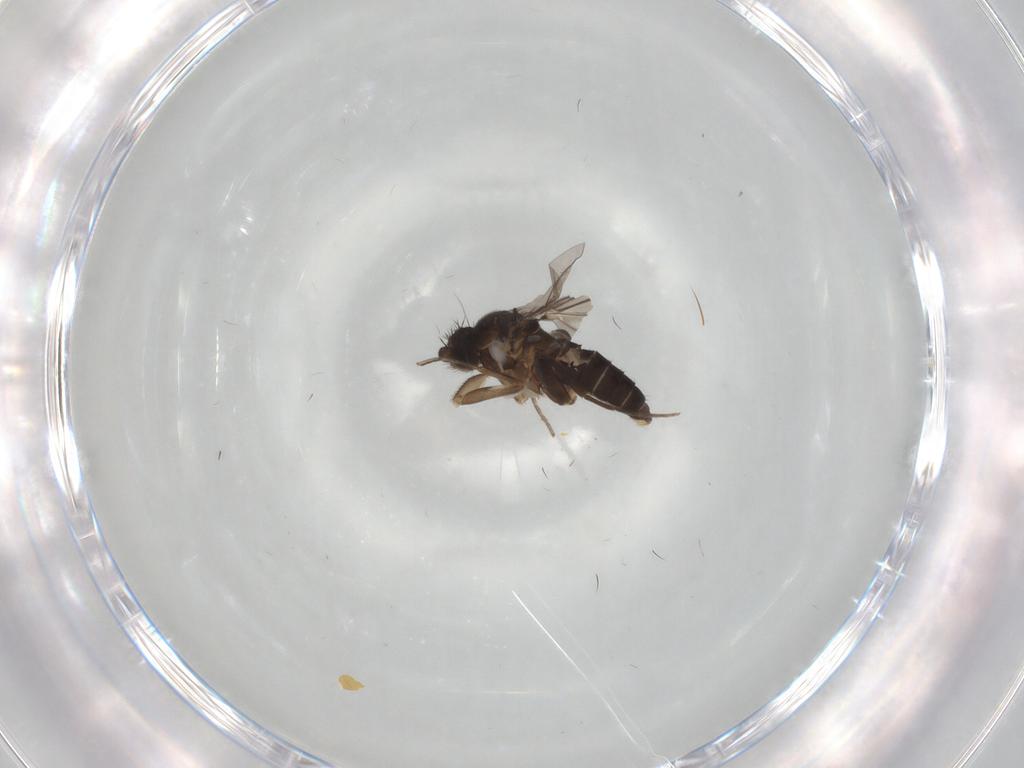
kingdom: Animalia
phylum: Arthropoda
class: Insecta
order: Diptera
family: Phoridae
